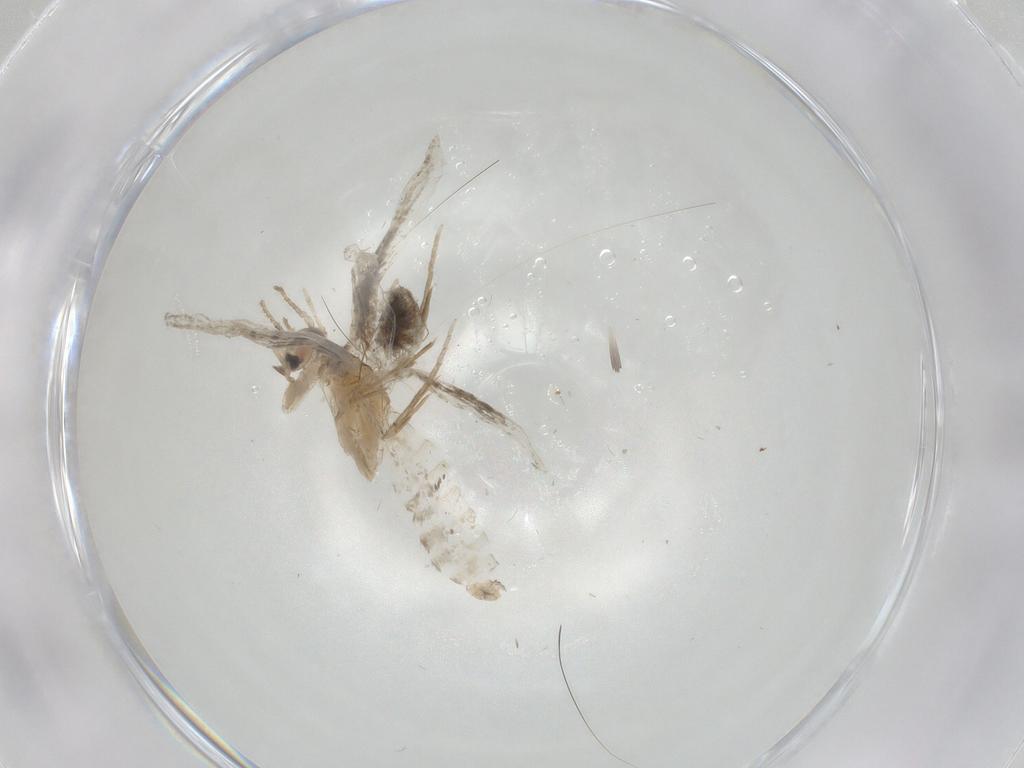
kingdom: Animalia
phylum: Arthropoda
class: Insecta
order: Lepidoptera
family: Psychidae
